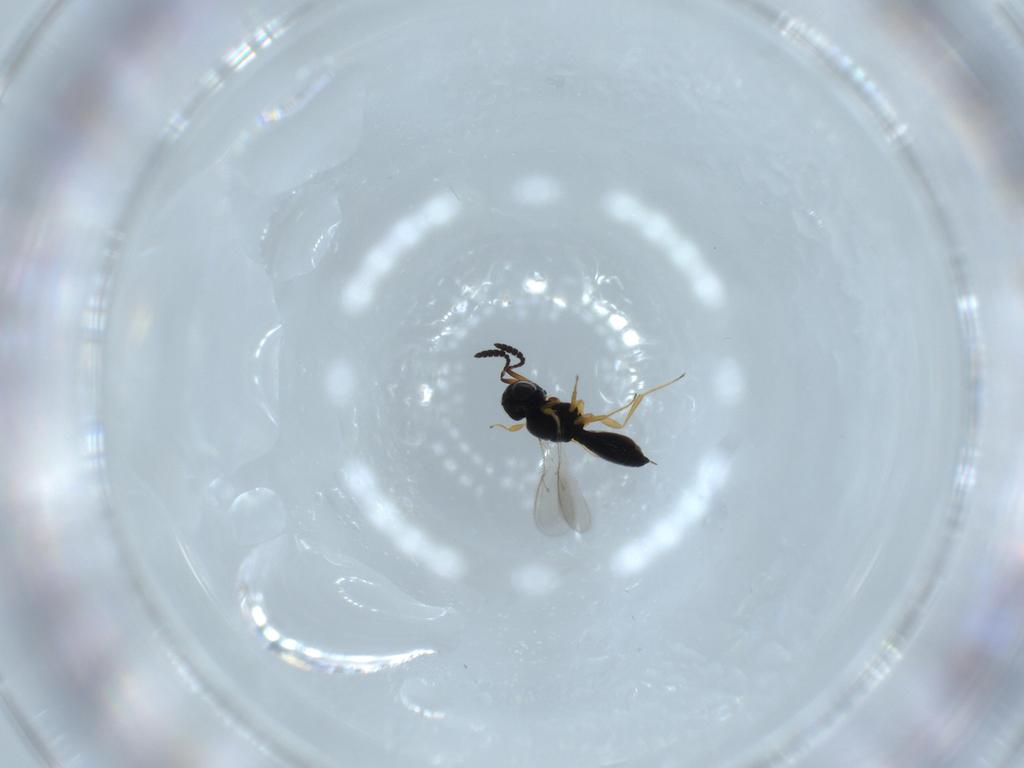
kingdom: Animalia
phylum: Arthropoda
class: Insecta
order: Hymenoptera
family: Scelionidae
